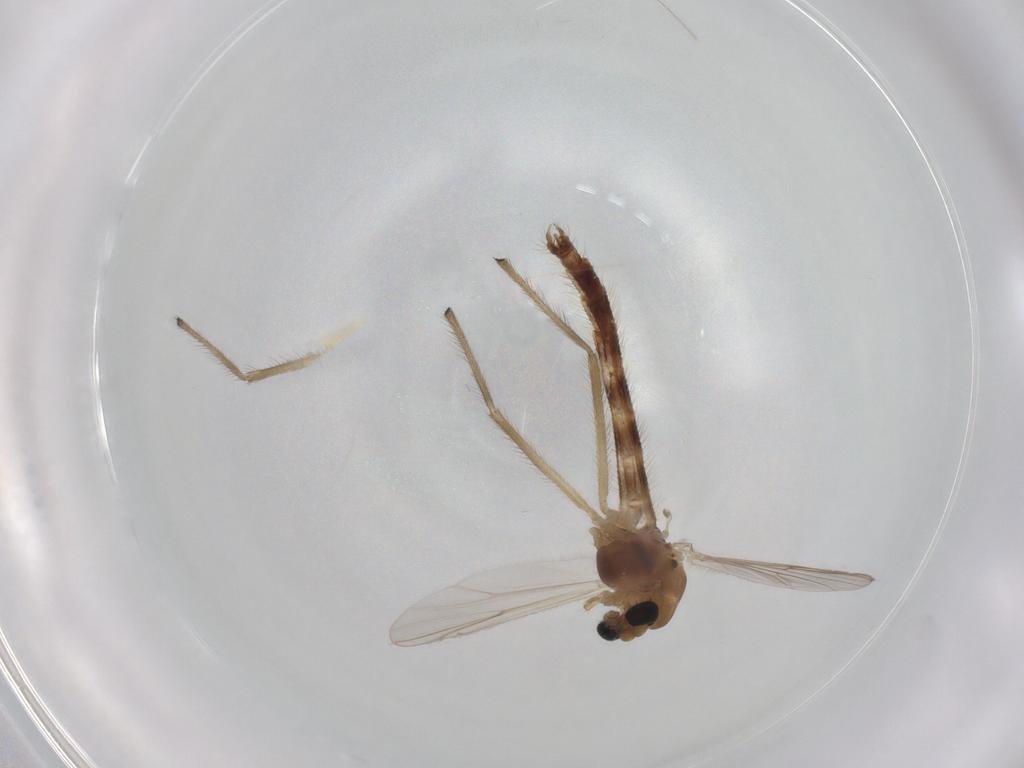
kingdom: Animalia
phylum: Arthropoda
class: Insecta
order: Diptera
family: Chironomidae
